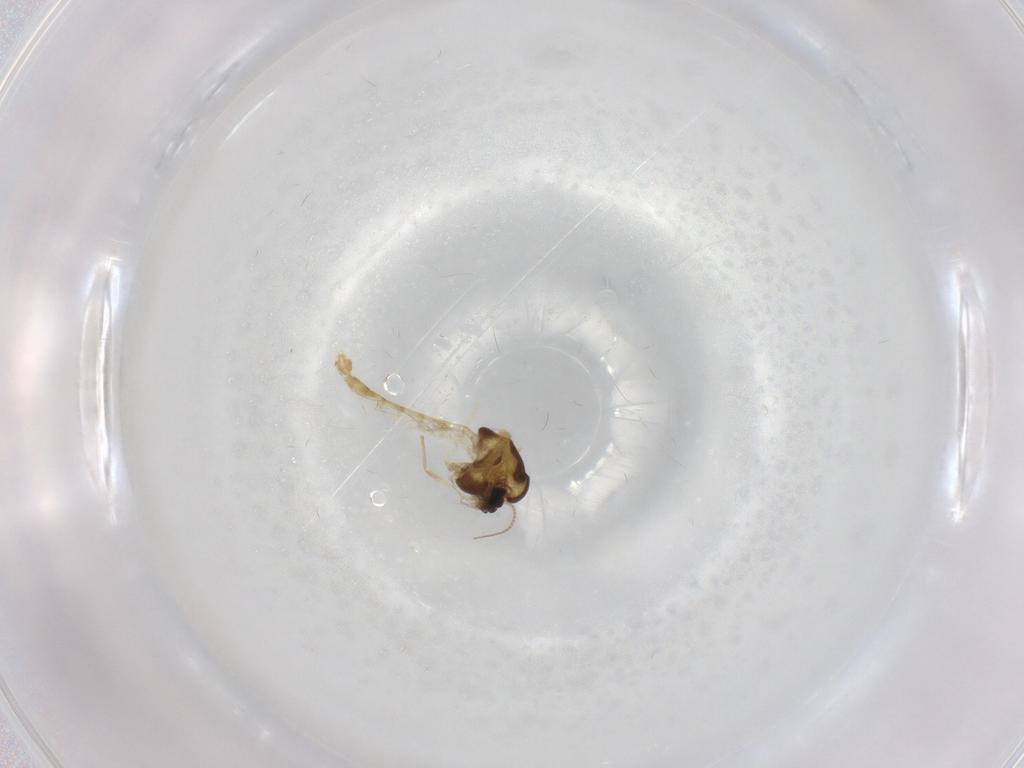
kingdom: Animalia
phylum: Arthropoda
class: Insecta
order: Diptera
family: Chironomidae
